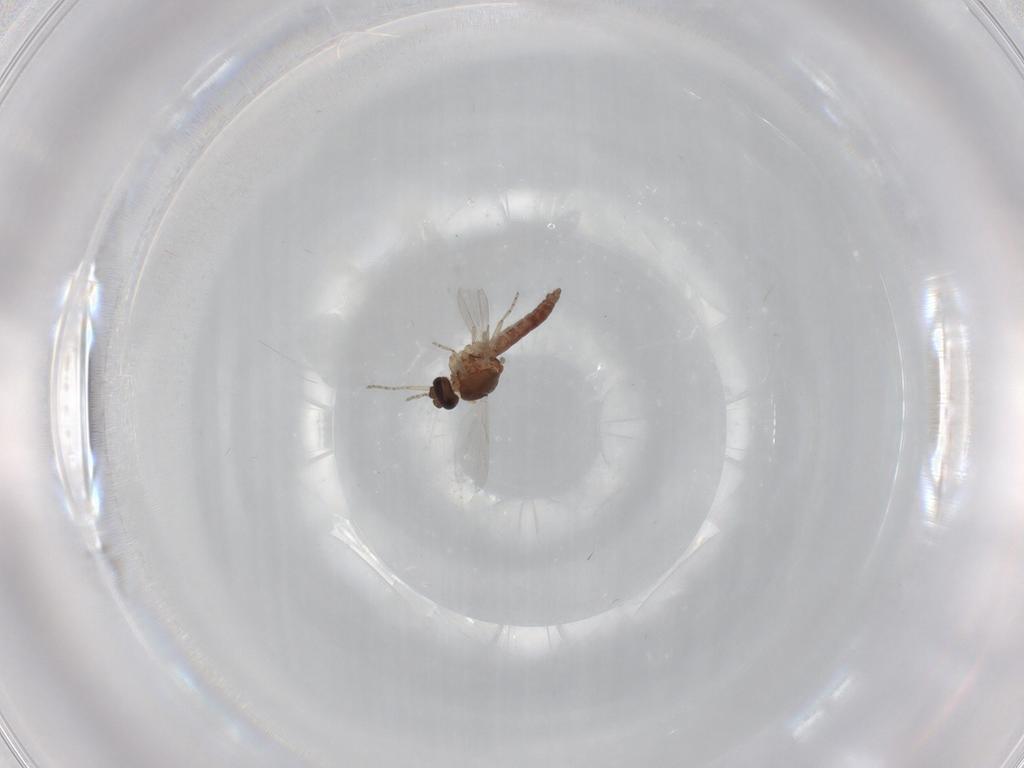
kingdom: Animalia
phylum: Arthropoda
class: Insecta
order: Diptera
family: Ceratopogonidae
